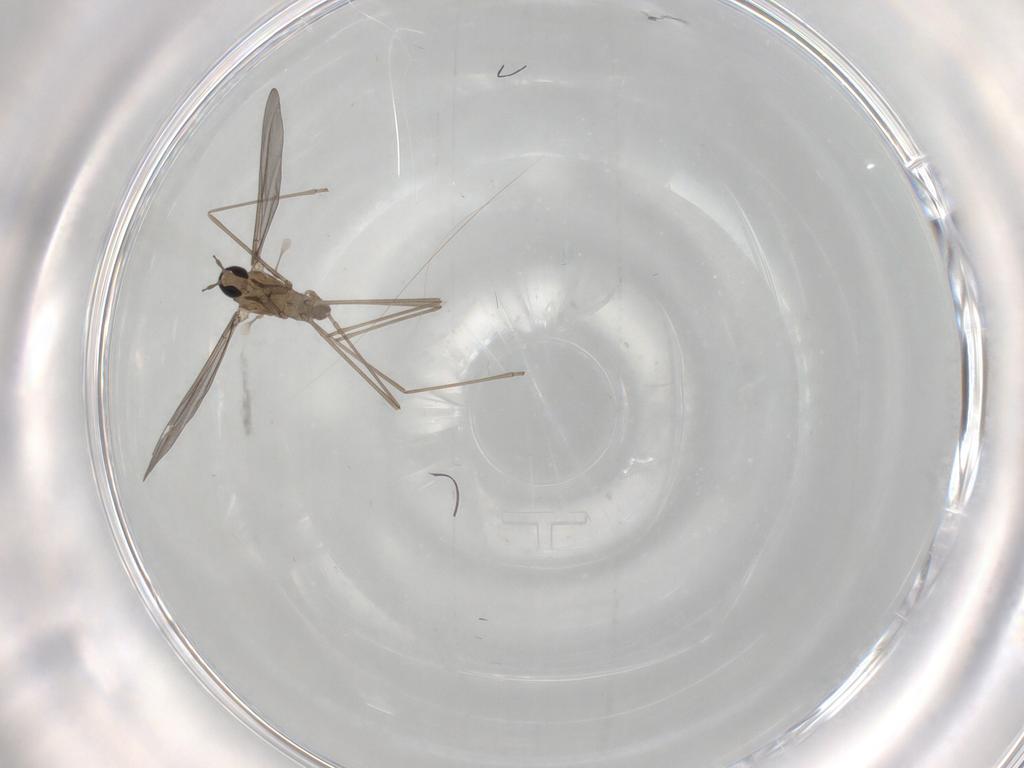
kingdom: Animalia
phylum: Arthropoda
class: Insecta
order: Diptera
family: Cecidomyiidae
